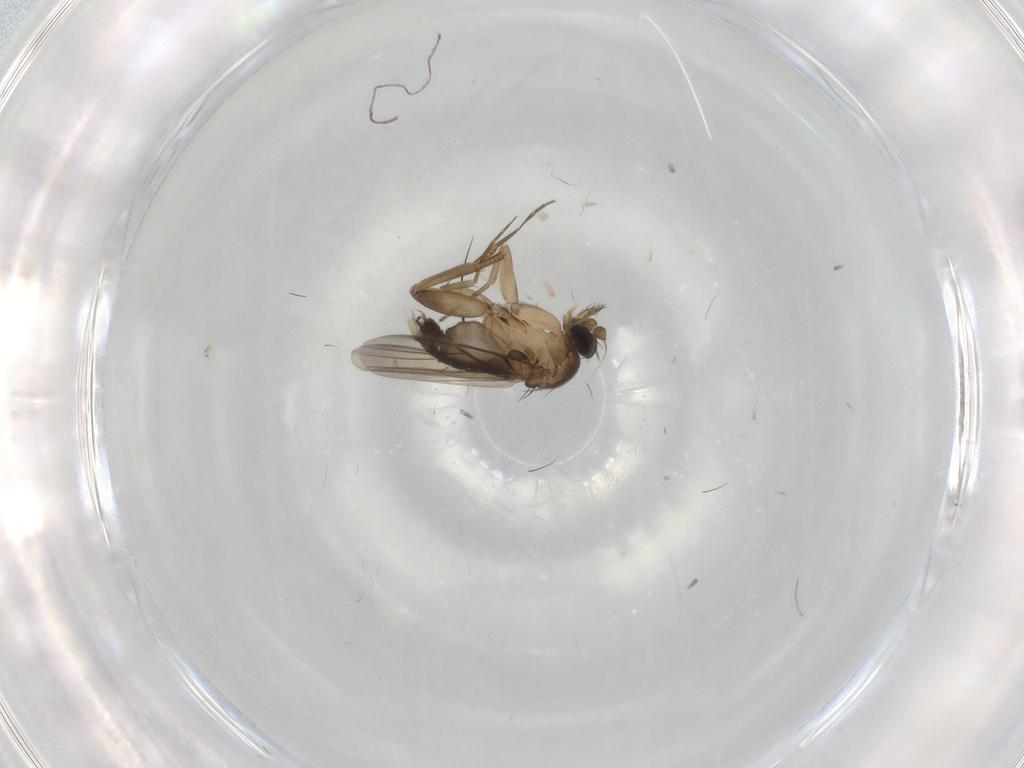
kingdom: Animalia
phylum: Arthropoda
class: Insecta
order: Diptera
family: Phoridae
